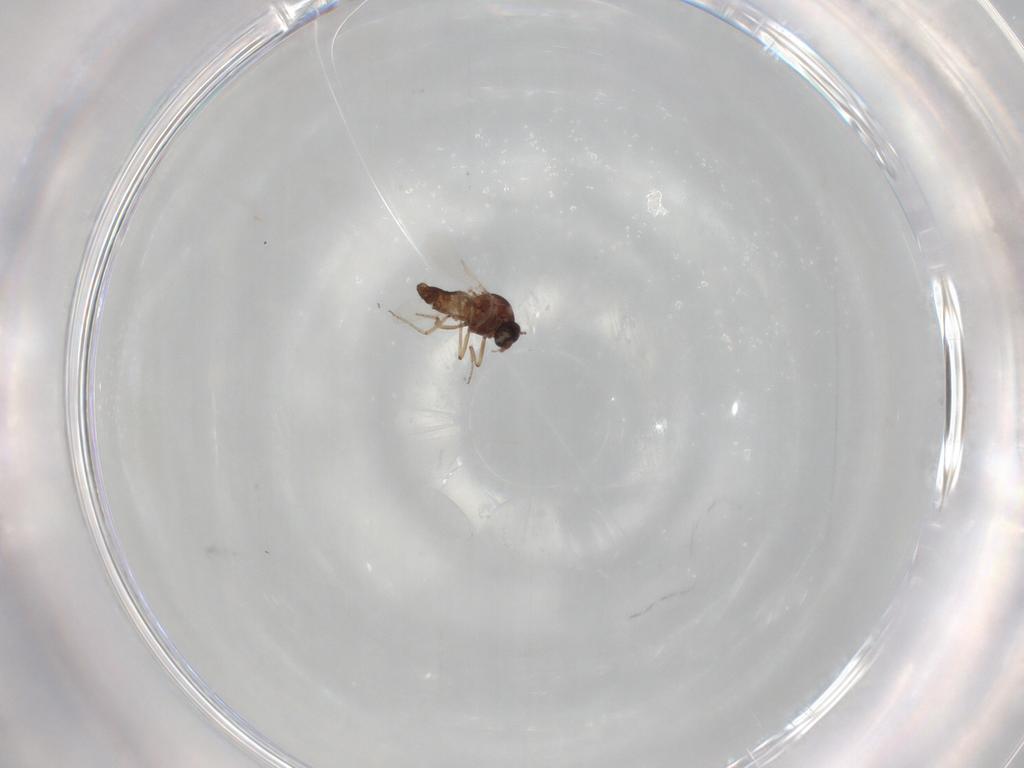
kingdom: Animalia
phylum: Arthropoda
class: Insecta
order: Diptera
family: Ceratopogonidae
